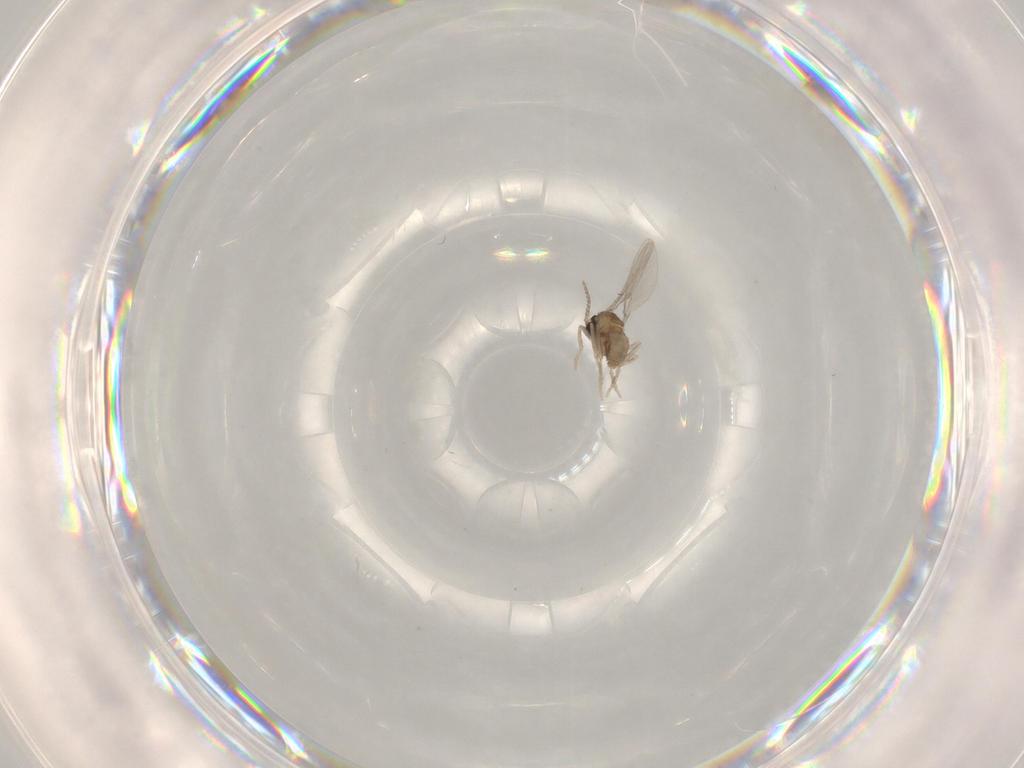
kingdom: Animalia
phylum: Arthropoda
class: Insecta
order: Diptera
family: Cecidomyiidae
